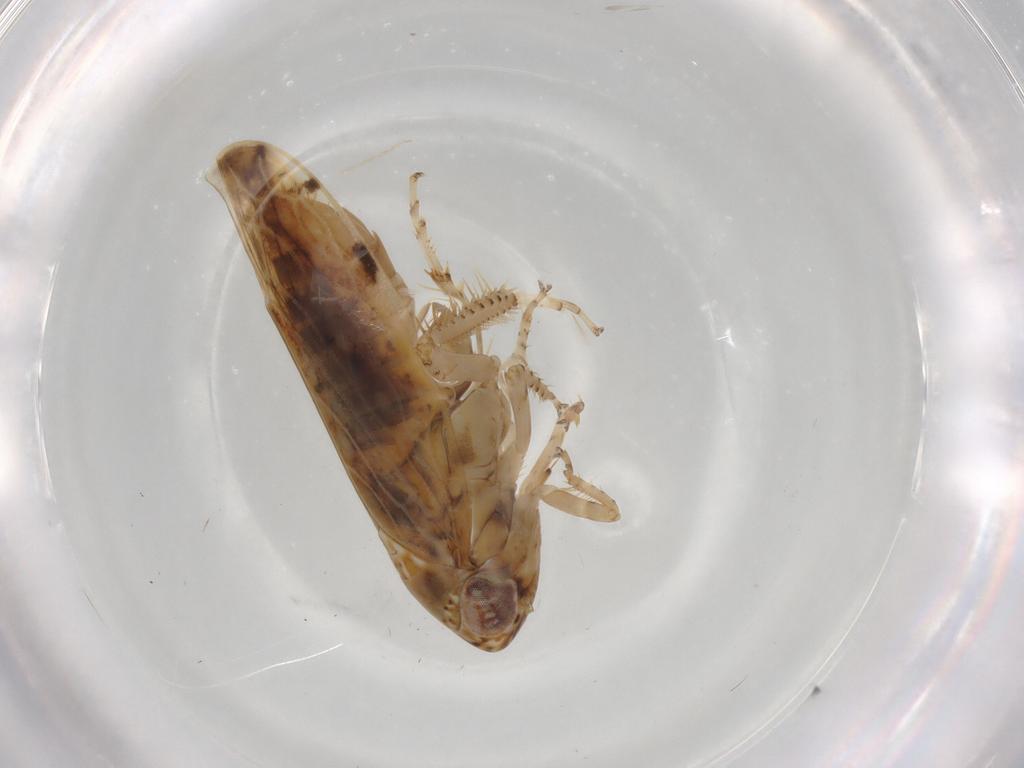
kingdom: Animalia
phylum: Arthropoda
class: Insecta
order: Hemiptera
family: Cicadellidae
